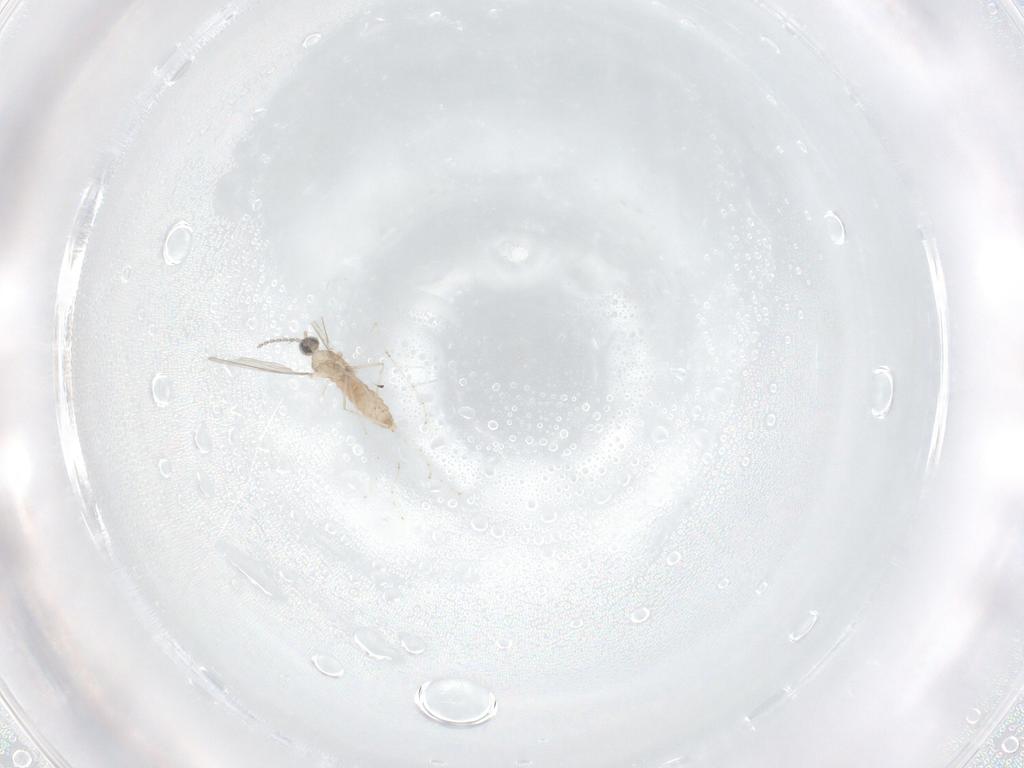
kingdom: Animalia
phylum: Arthropoda
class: Insecta
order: Diptera
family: Cecidomyiidae
